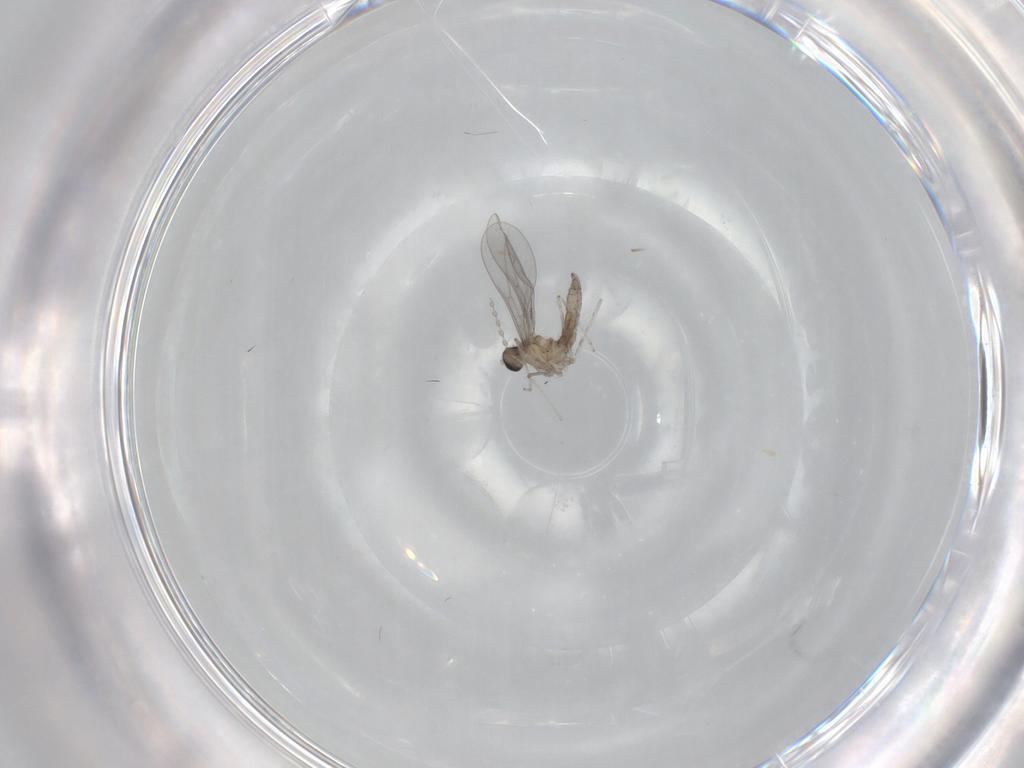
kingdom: Animalia
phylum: Arthropoda
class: Insecta
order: Diptera
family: Cecidomyiidae
